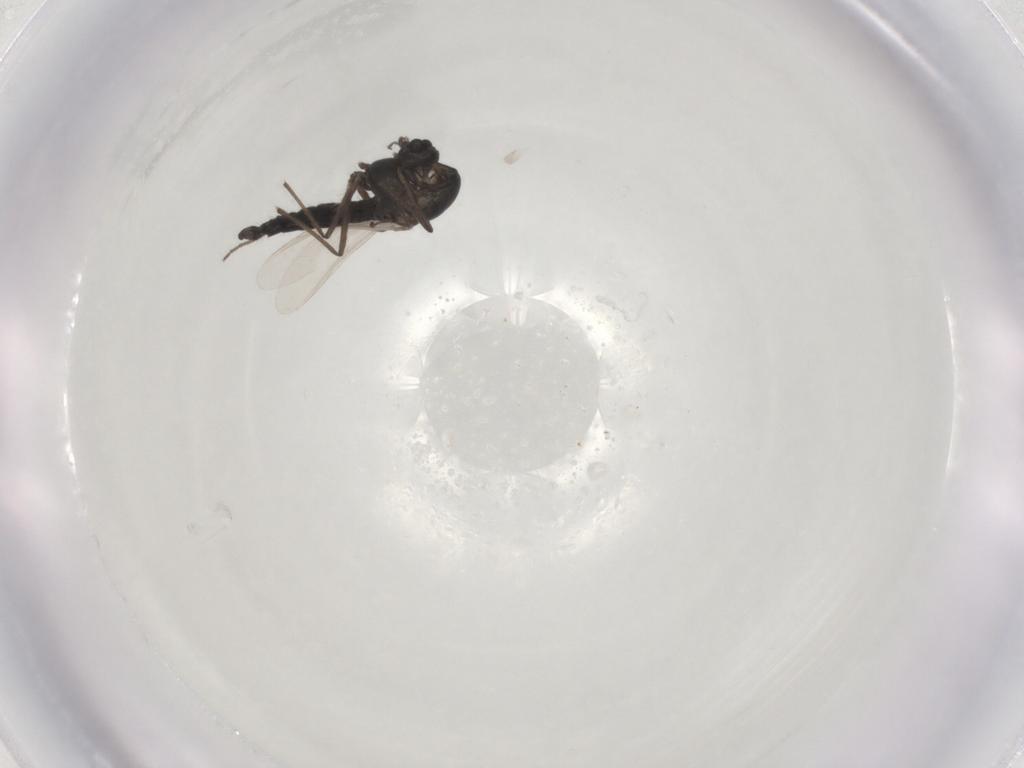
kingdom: Animalia
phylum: Arthropoda
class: Insecta
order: Diptera
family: Chironomidae
